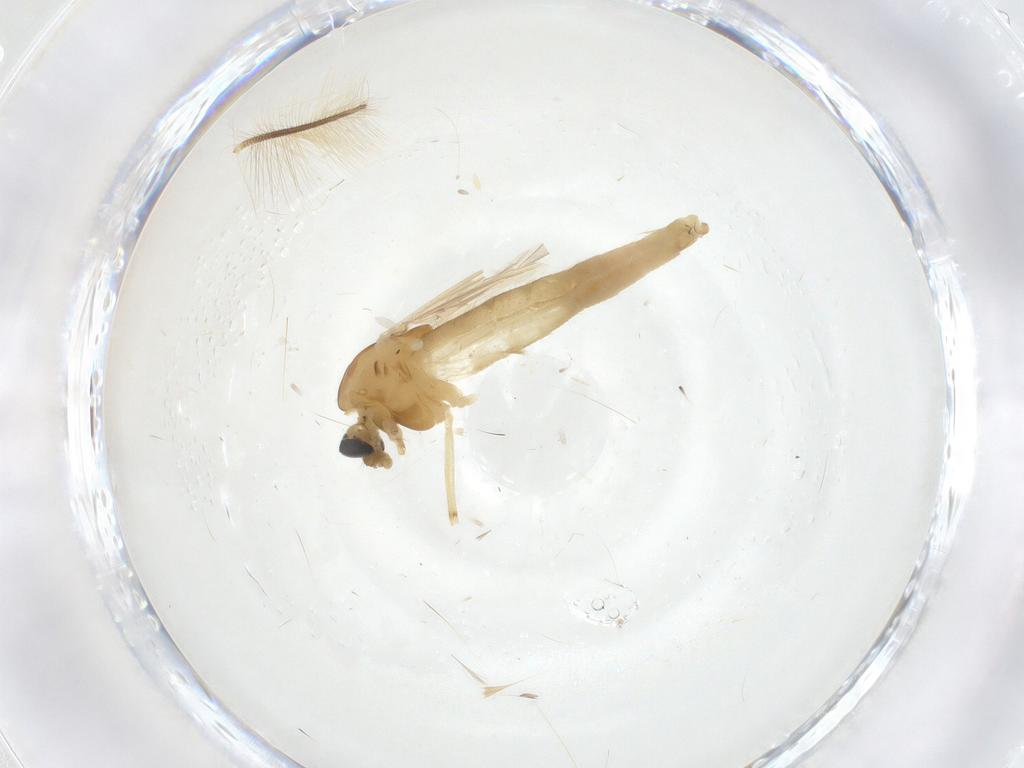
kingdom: Animalia
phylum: Arthropoda
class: Insecta
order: Diptera
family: Chironomidae
